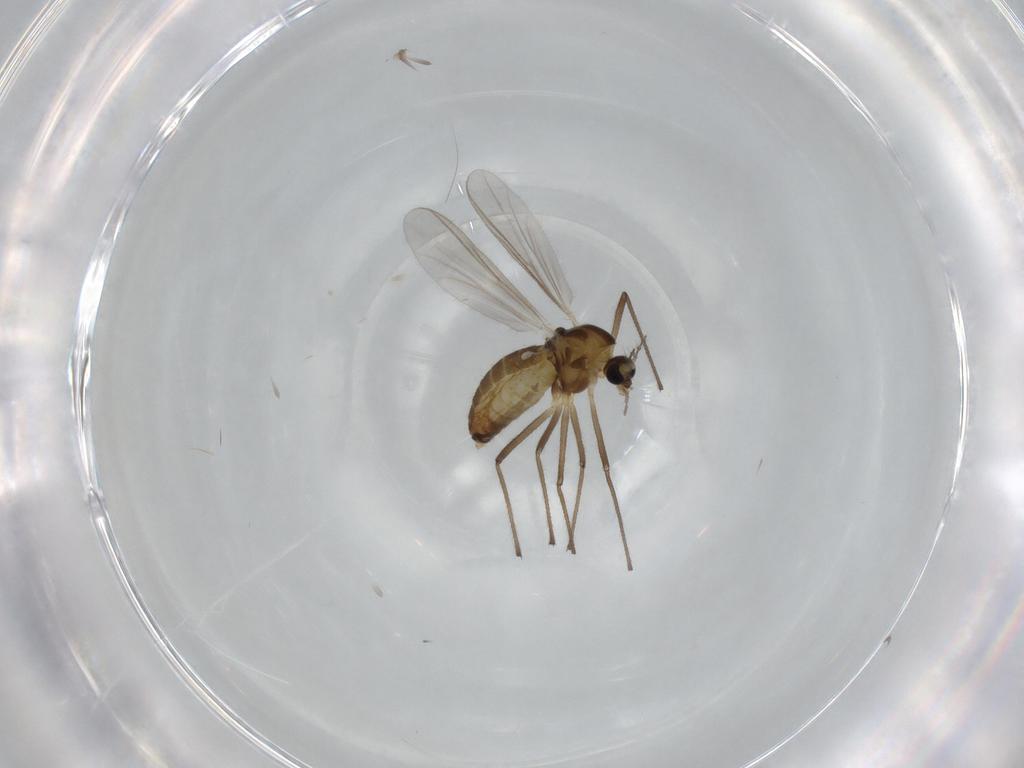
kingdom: Animalia
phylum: Arthropoda
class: Insecta
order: Diptera
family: Chironomidae
